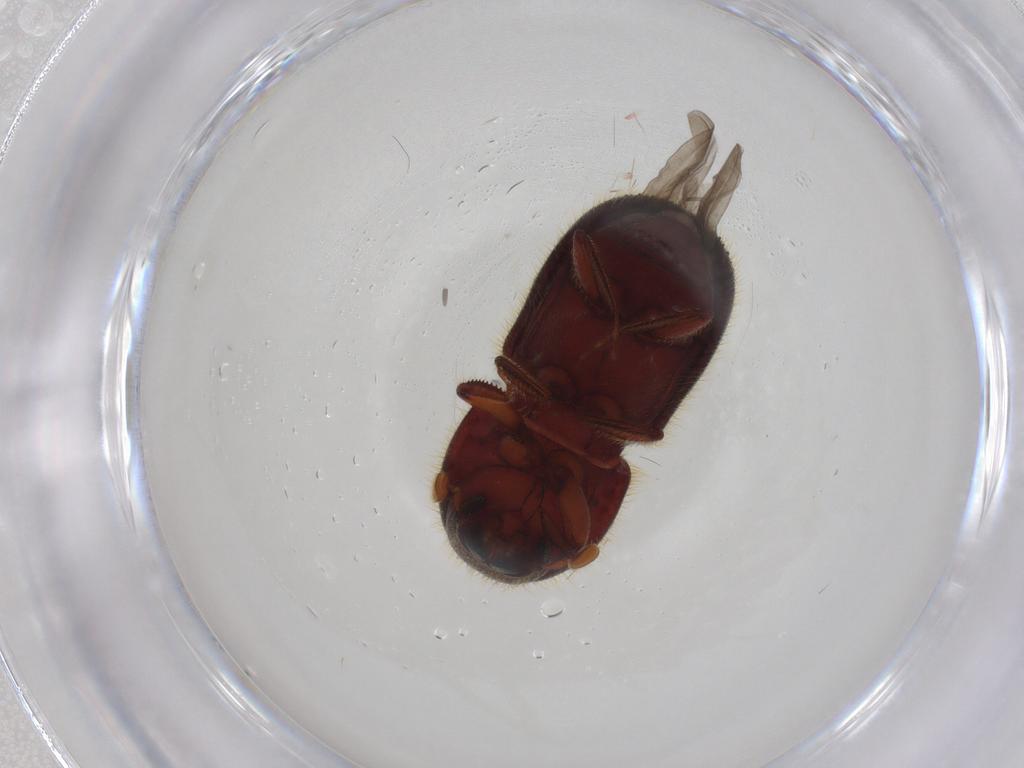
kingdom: Animalia
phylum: Arthropoda
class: Insecta
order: Coleoptera
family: Curculionidae
